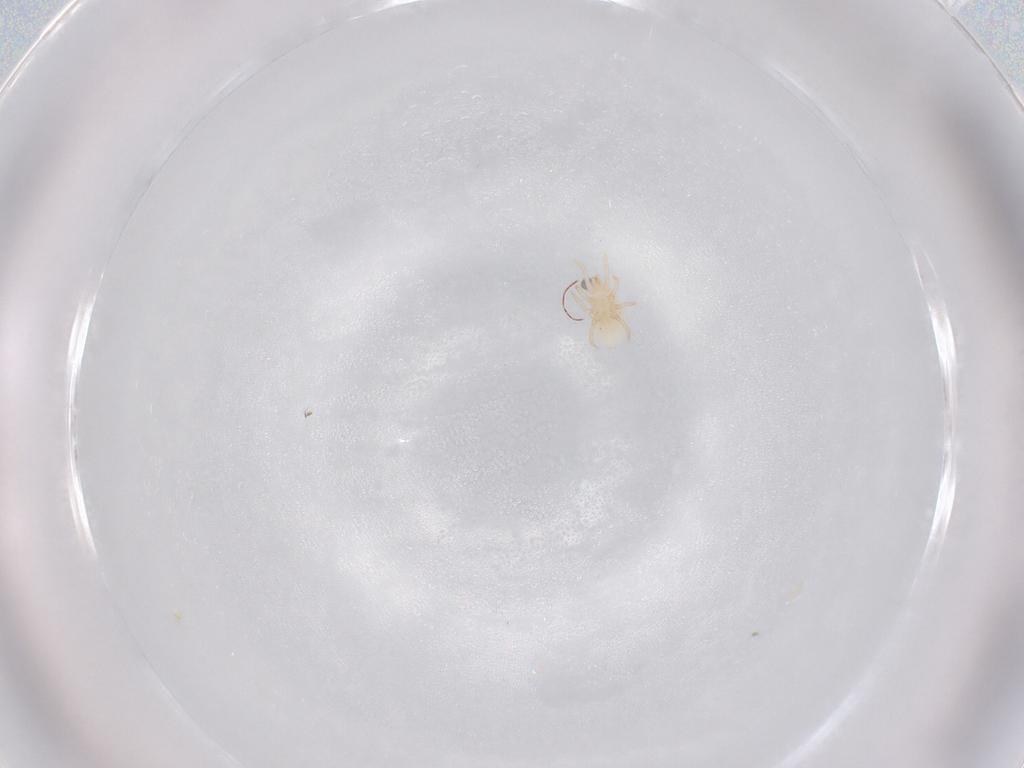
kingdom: Animalia
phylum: Arthropoda
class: Arachnida
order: Mesostigmata
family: Laelapidae
